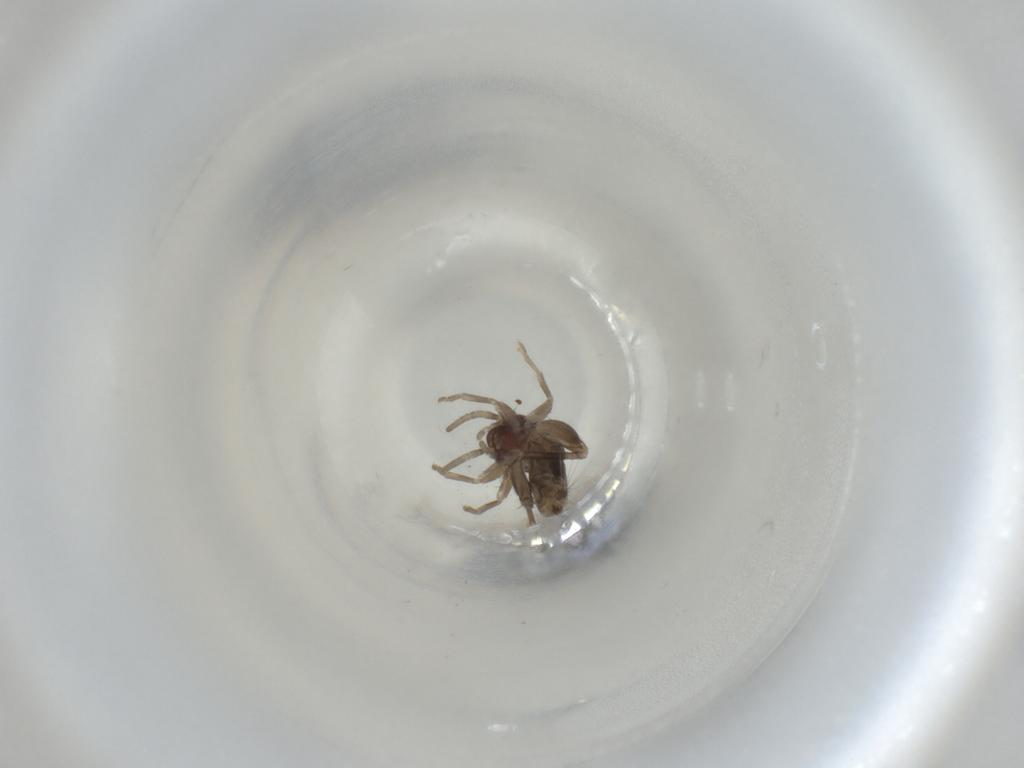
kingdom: Animalia
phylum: Arthropoda
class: Insecta
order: Orthoptera
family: Gryllidae
